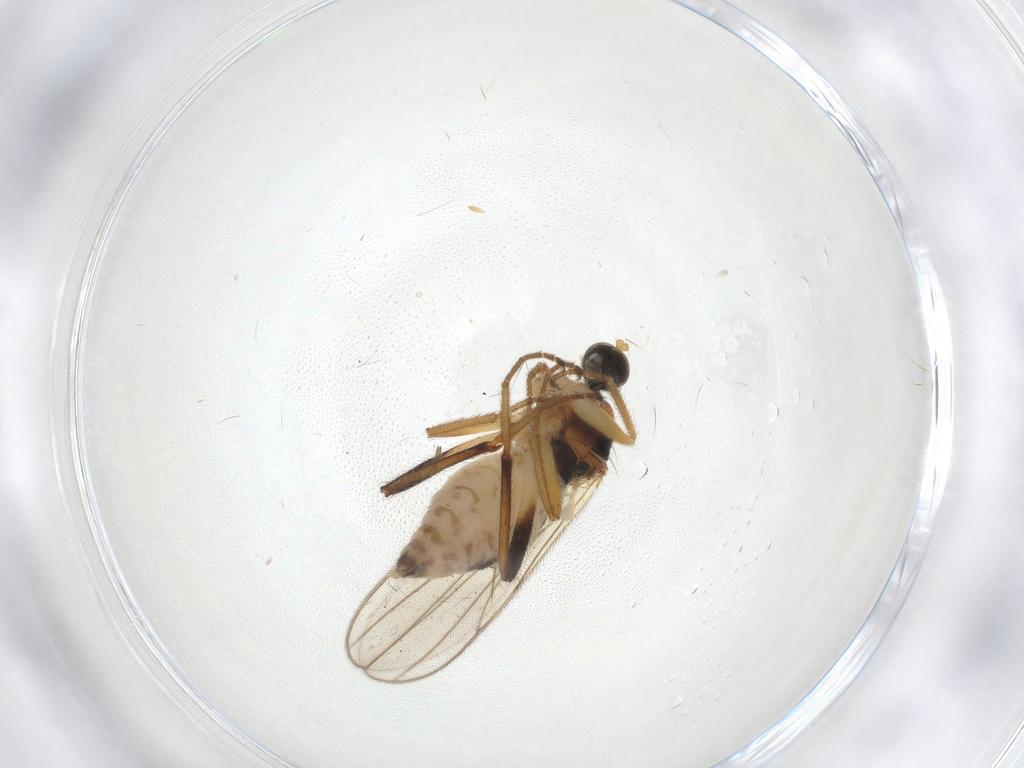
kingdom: Animalia
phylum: Arthropoda
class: Insecta
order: Diptera
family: Hybotidae
